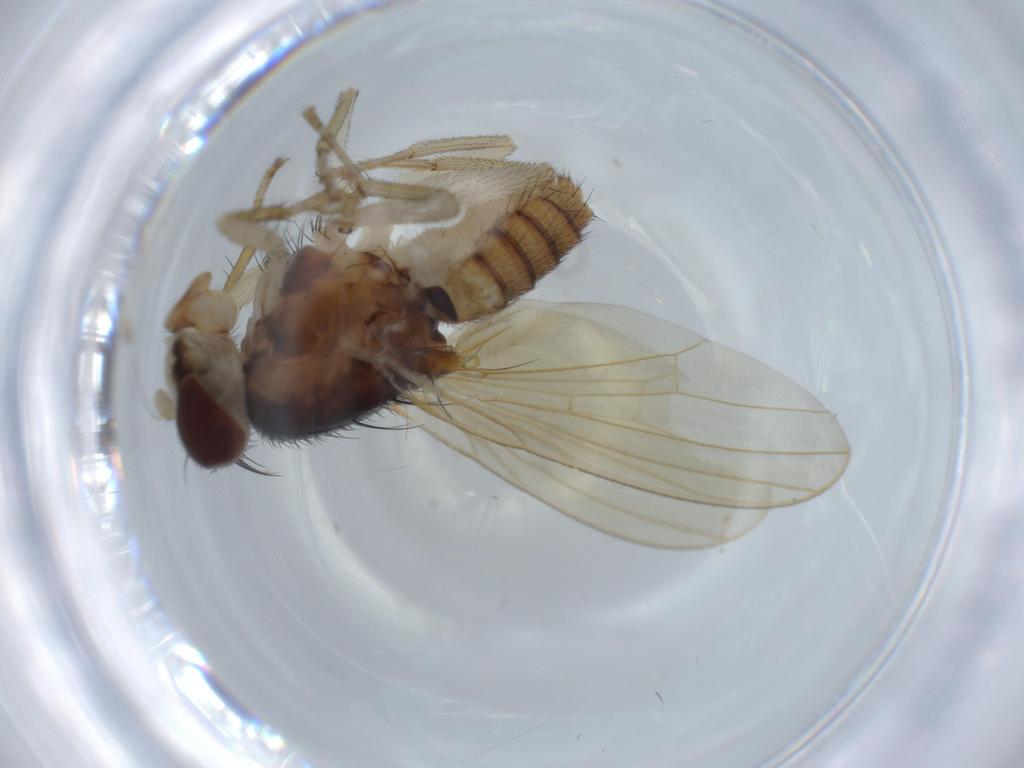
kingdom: Animalia
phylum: Arthropoda
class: Insecta
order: Diptera
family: Lauxaniidae
